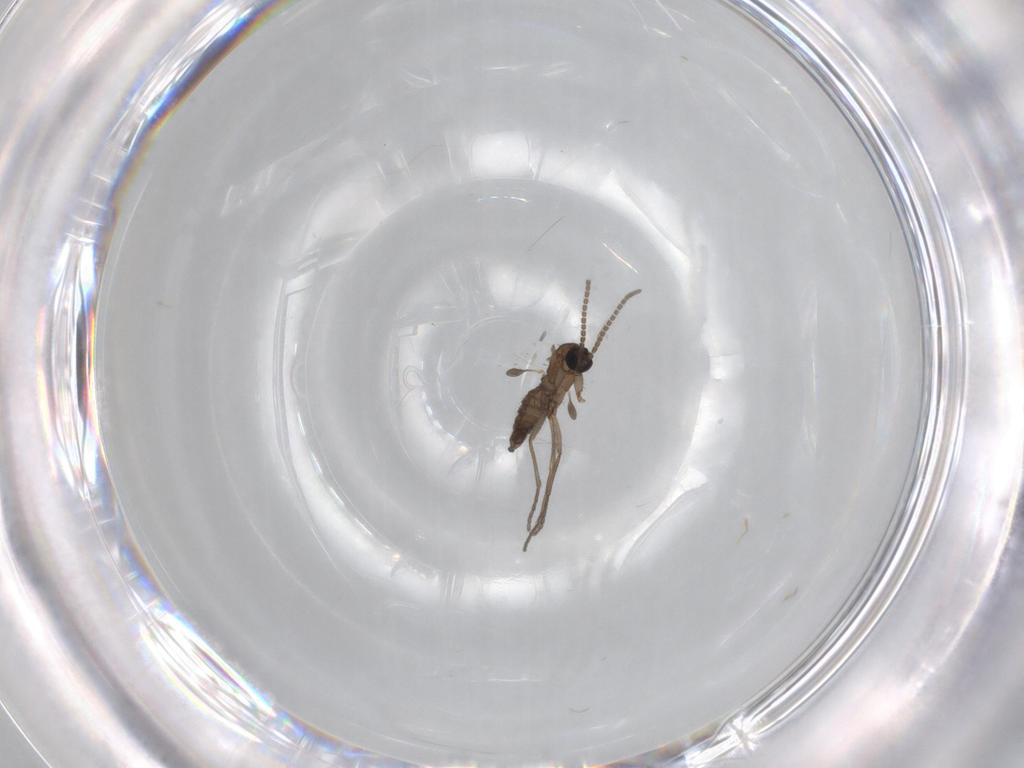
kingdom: Animalia
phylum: Arthropoda
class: Insecta
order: Diptera
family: Sciaridae
